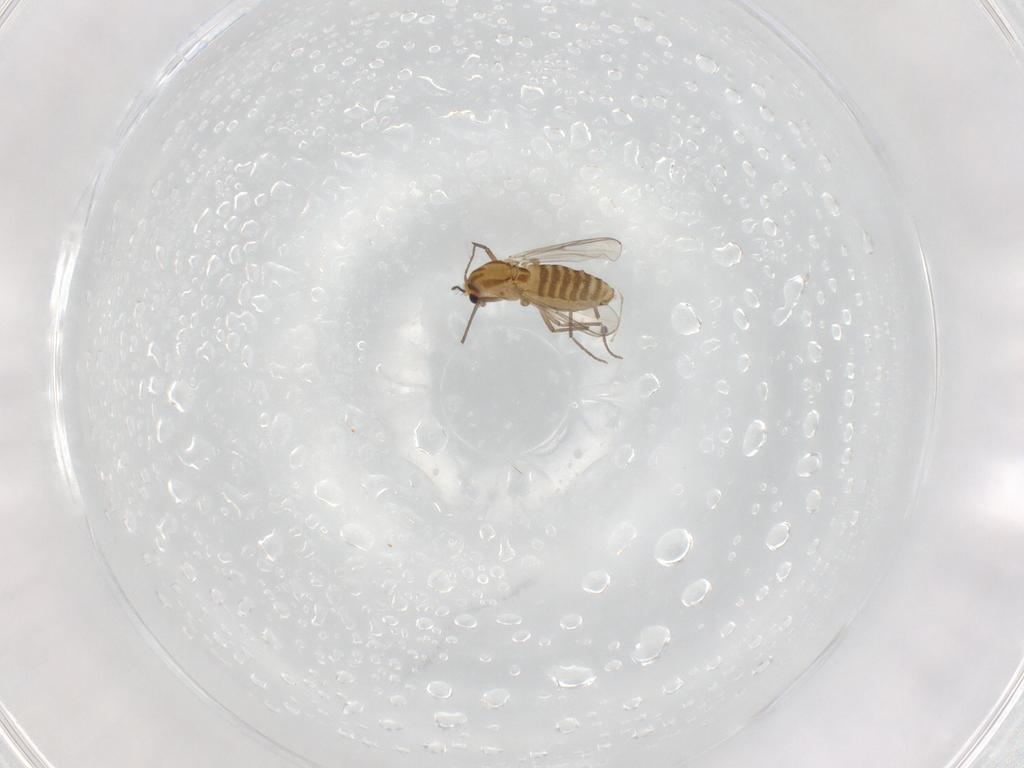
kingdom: Animalia
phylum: Arthropoda
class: Insecta
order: Diptera
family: Chironomidae
